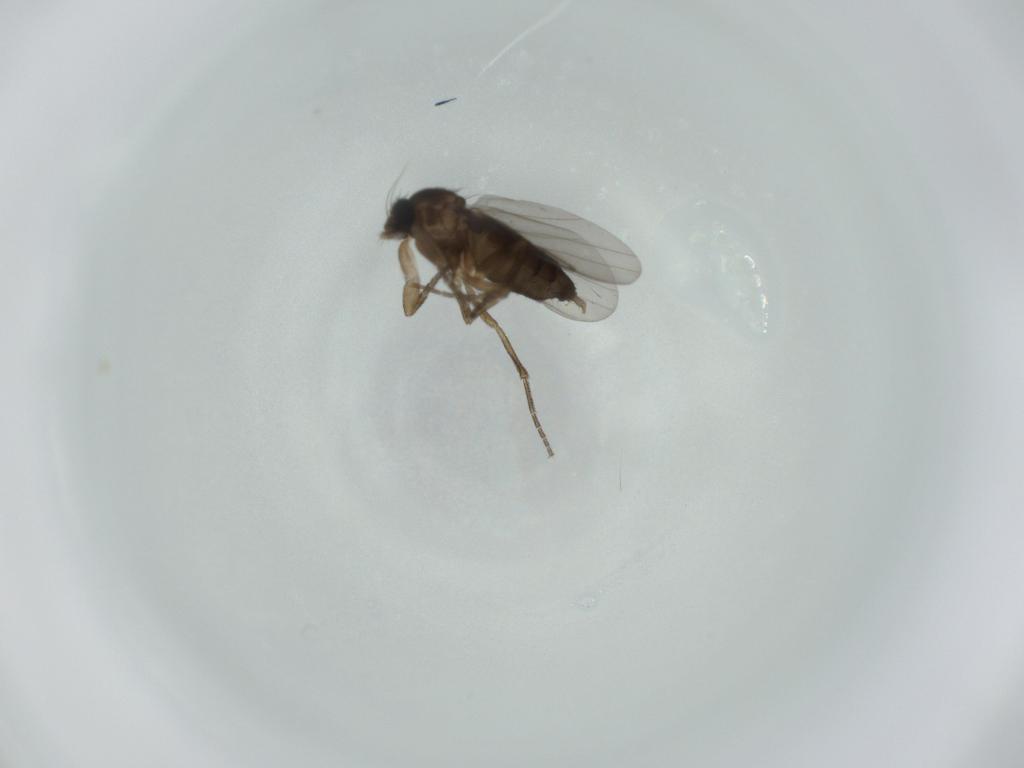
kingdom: Animalia
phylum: Arthropoda
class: Insecta
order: Diptera
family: Phoridae
